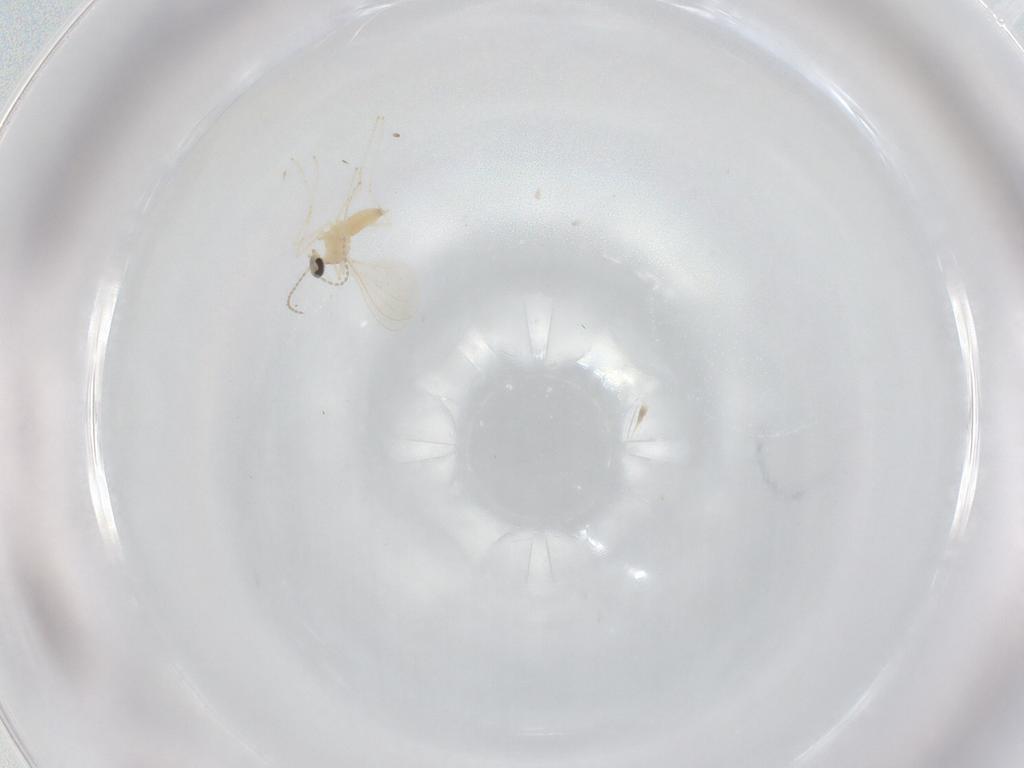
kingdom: Animalia
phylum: Arthropoda
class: Insecta
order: Diptera
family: Cecidomyiidae
